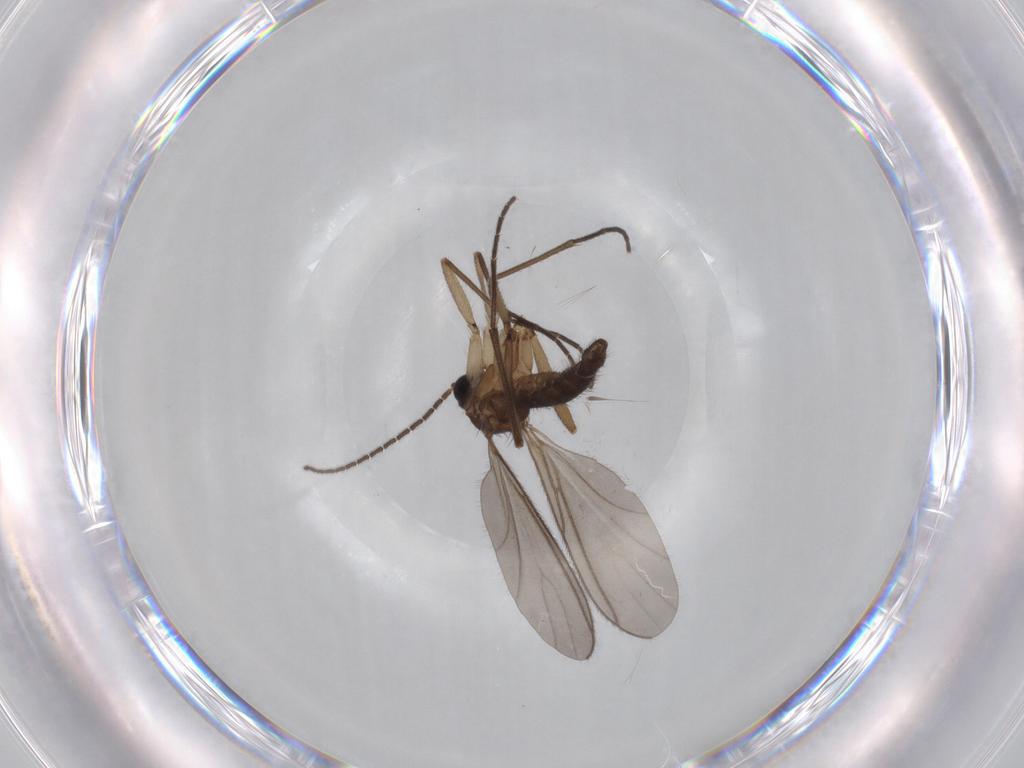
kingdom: Animalia
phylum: Arthropoda
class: Insecta
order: Diptera
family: Sciaridae
